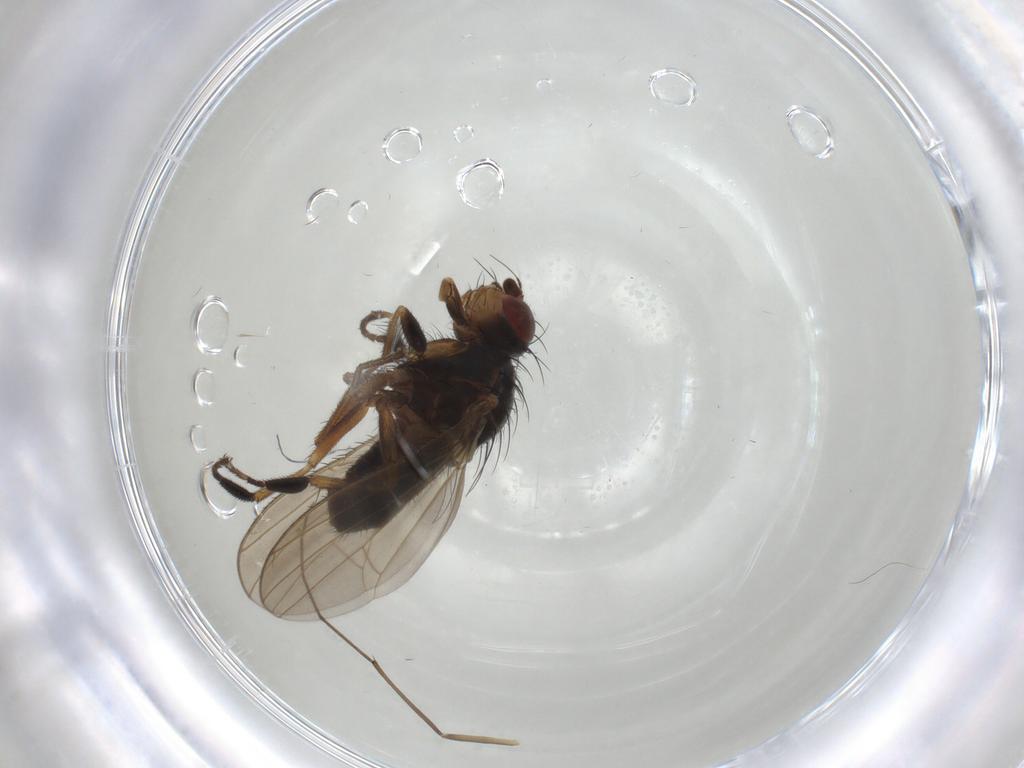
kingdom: Animalia
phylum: Arthropoda
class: Insecta
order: Diptera
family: Heleomyzidae
